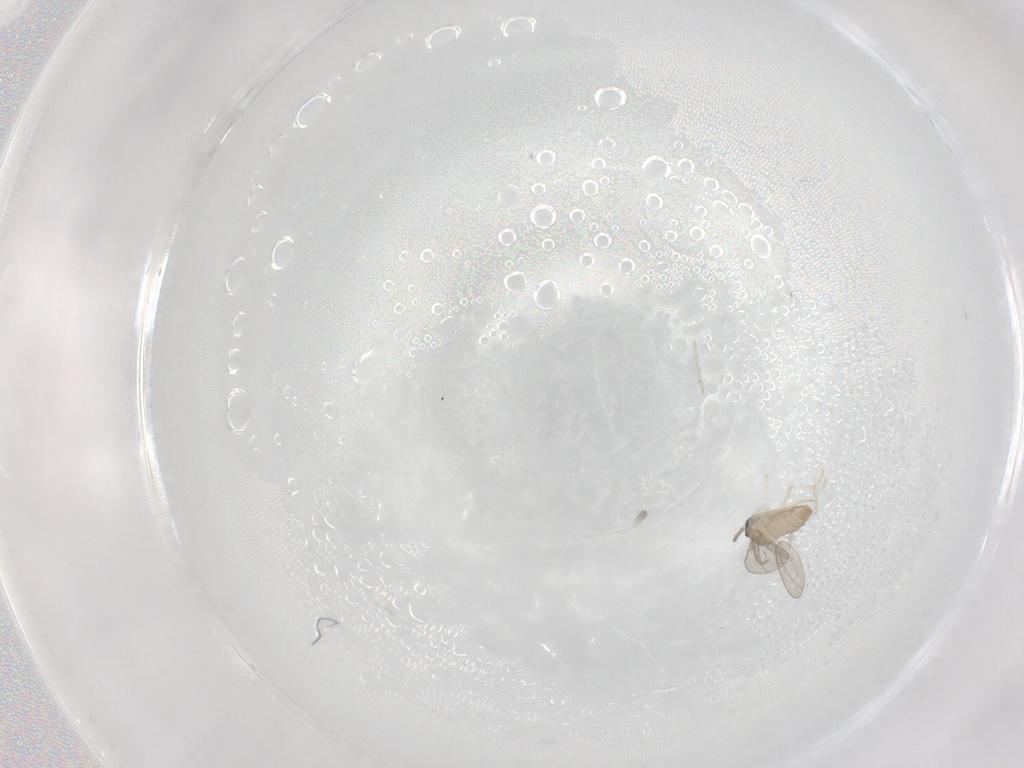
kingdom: Animalia
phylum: Arthropoda
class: Insecta
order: Diptera
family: Cecidomyiidae
